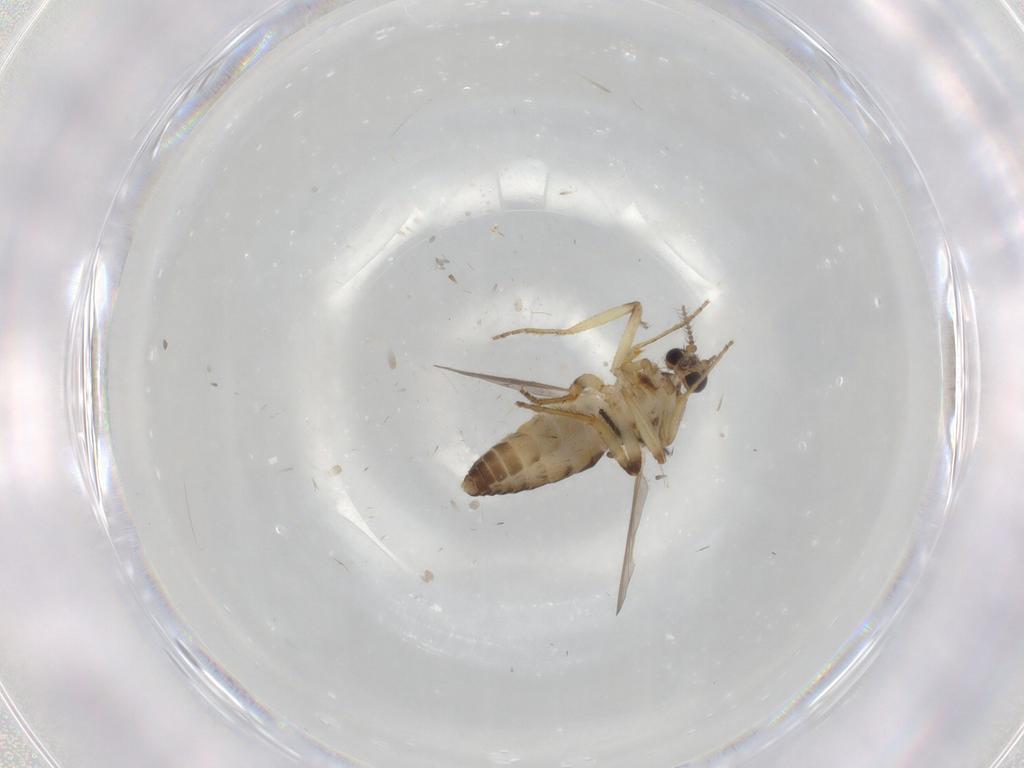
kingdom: Animalia
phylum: Arthropoda
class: Insecta
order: Diptera
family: Ceratopogonidae
